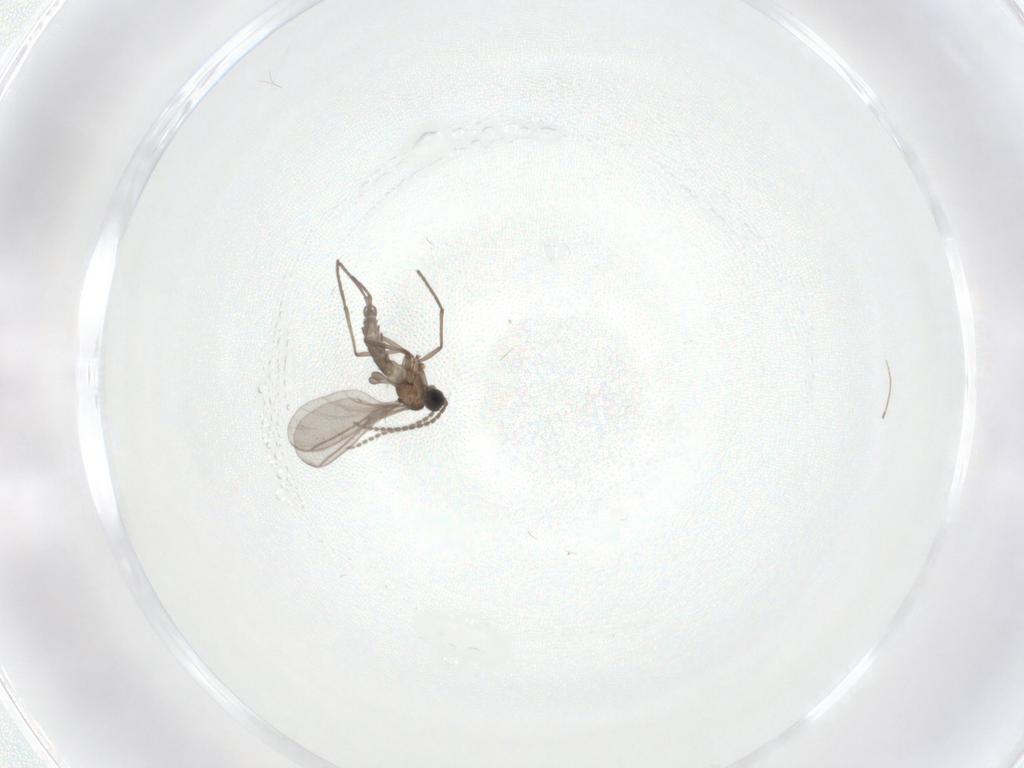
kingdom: Animalia
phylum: Arthropoda
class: Insecta
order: Diptera
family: Sciaridae
